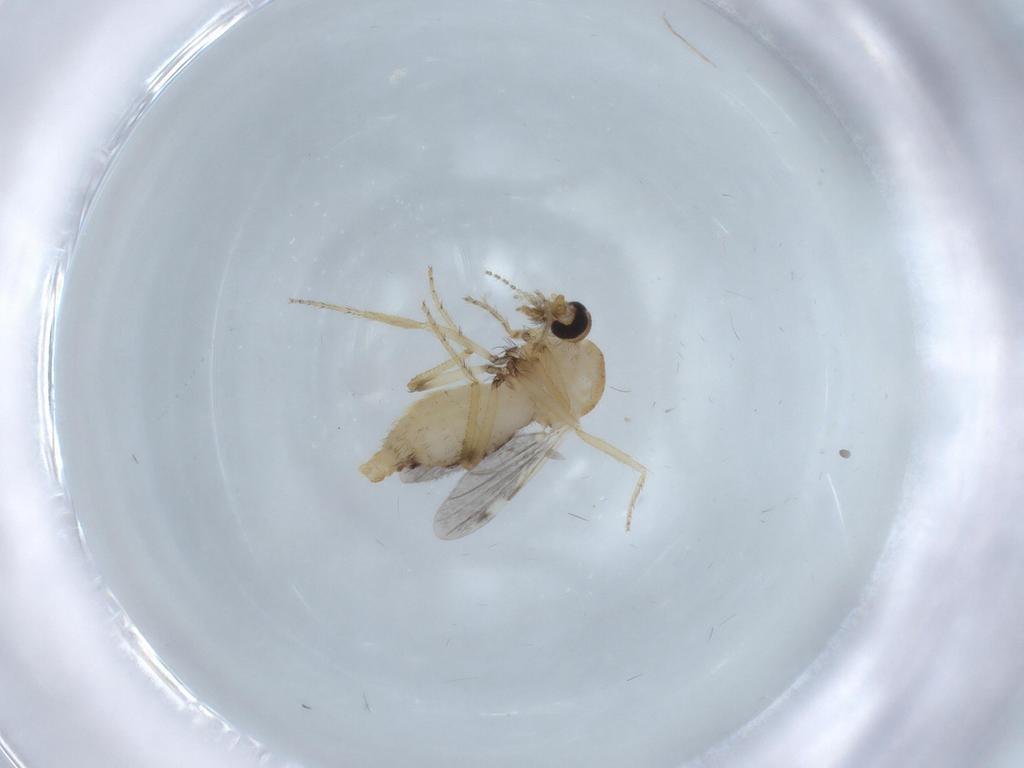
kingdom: Animalia
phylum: Arthropoda
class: Insecta
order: Diptera
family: Ceratopogonidae
